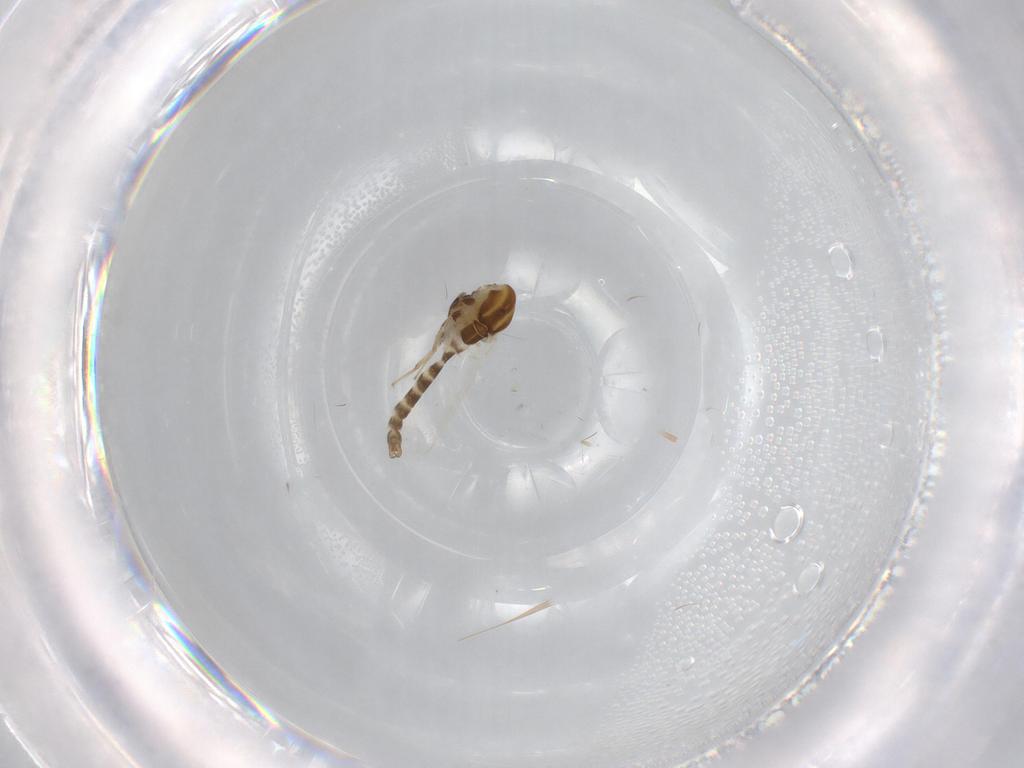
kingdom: Animalia
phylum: Arthropoda
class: Insecta
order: Diptera
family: Chironomidae
